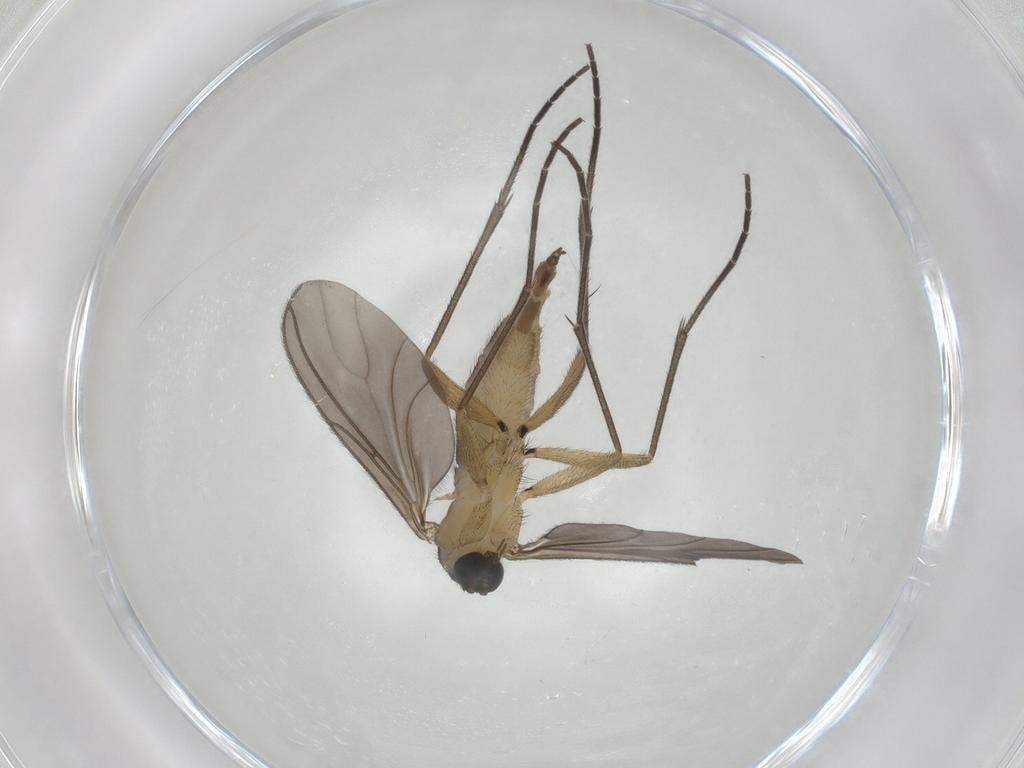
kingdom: Animalia
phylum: Arthropoda
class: Insecta
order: Diptera
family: Sciaridae
